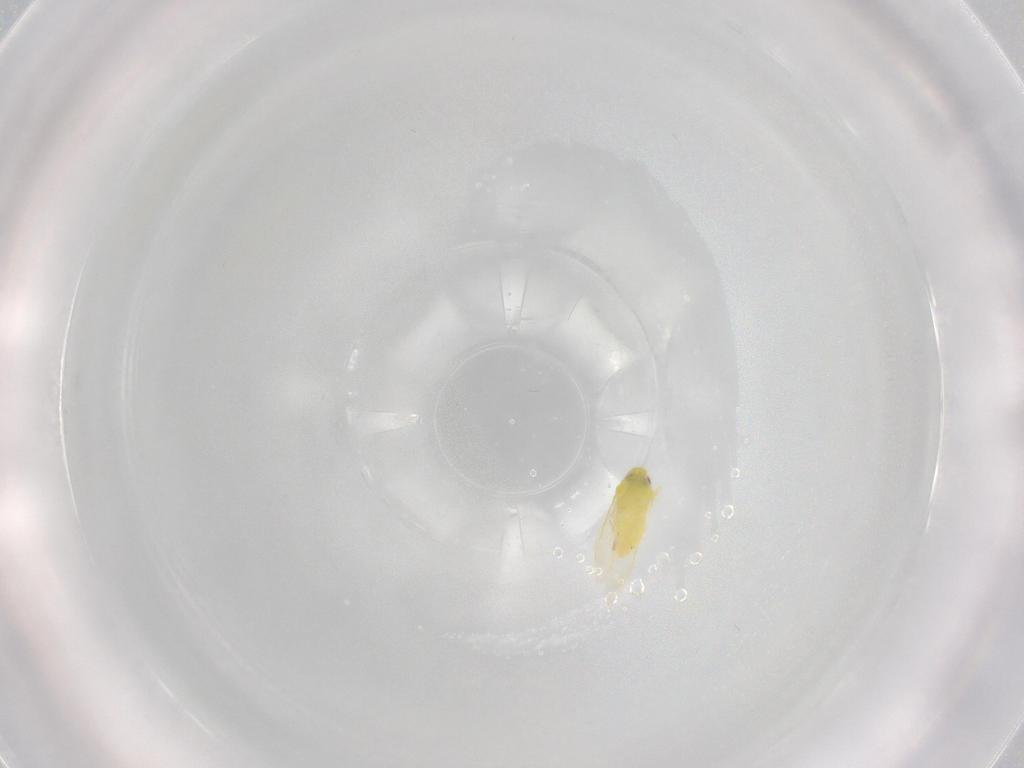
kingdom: Animalia
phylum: Arthropoda
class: Insecta
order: Hemiptera
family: Aleyrodidae
